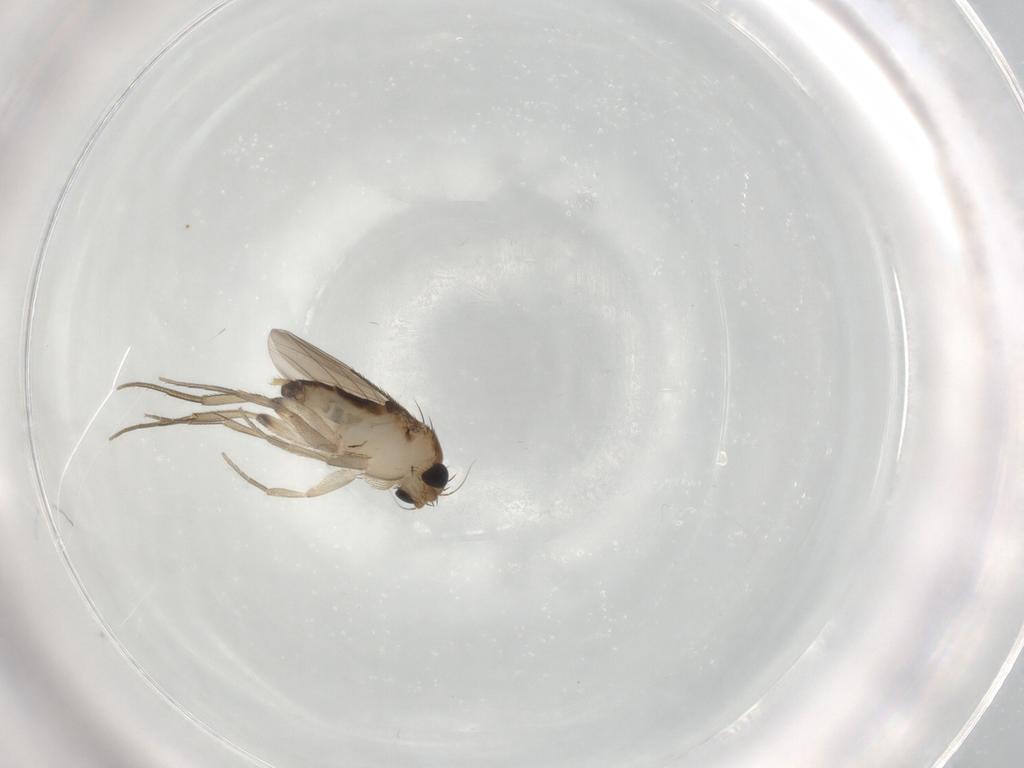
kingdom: Animalia
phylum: Arthropoda
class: Insecta
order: Diptera
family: Phoridae
